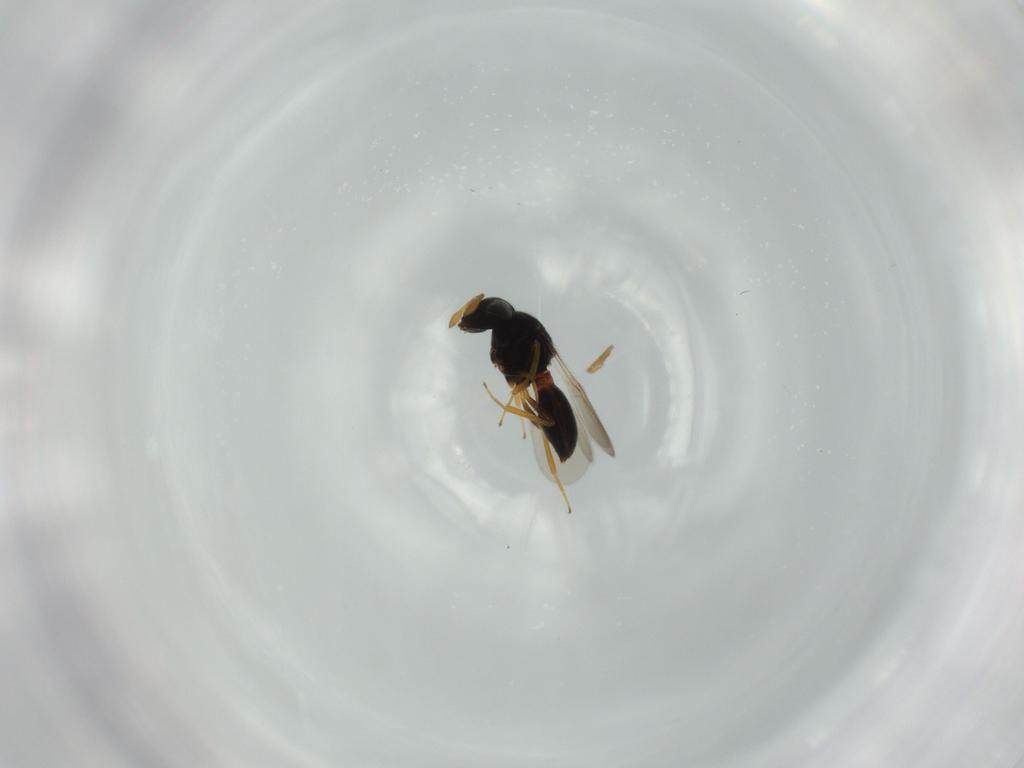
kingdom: Animalia
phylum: Arthropoda
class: Insecta
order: Hymenoptera
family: Scelionidae
